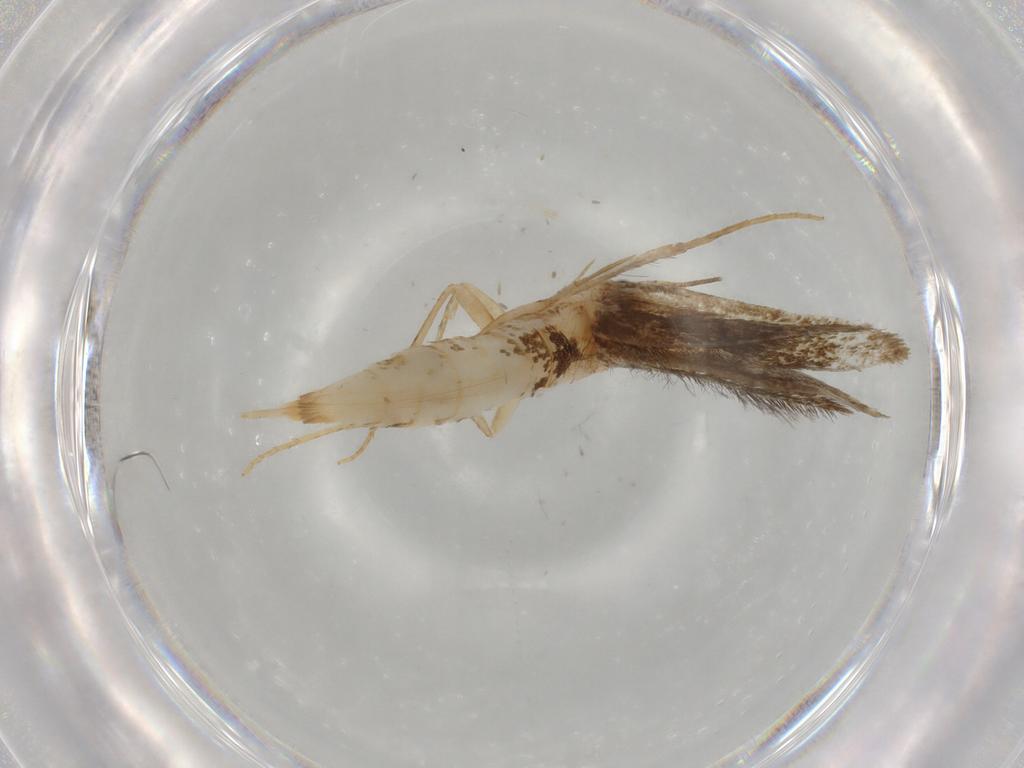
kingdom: Animalia
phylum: Arthropoda
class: Insecta
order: Lepidoptera
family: Tineidae
